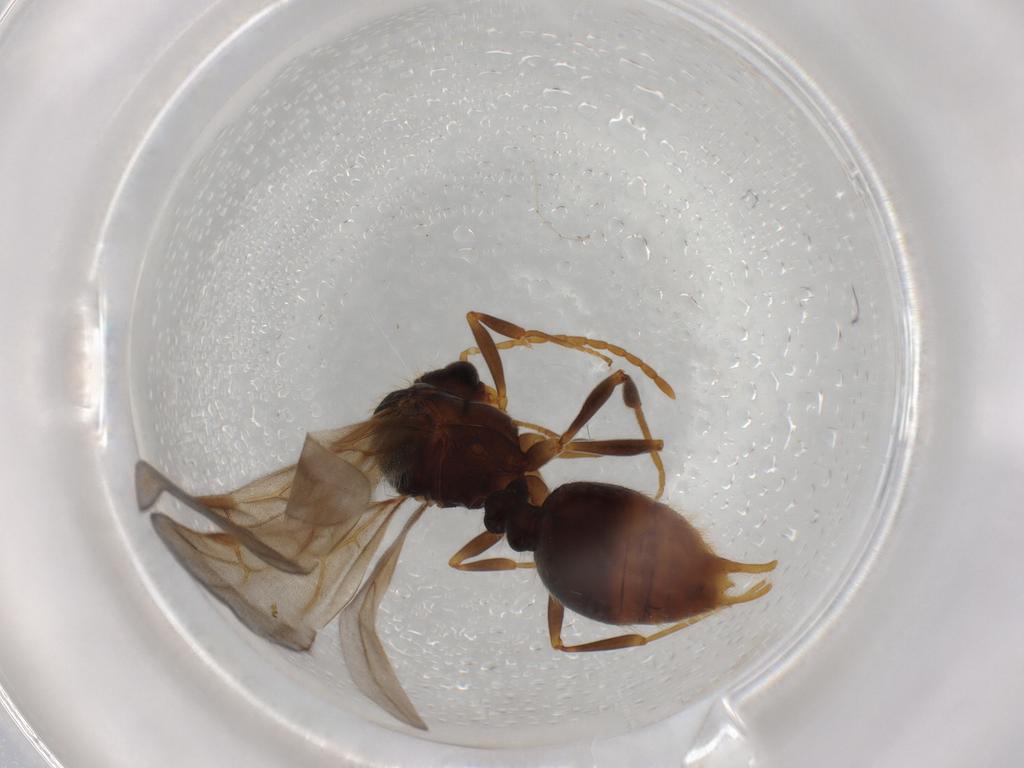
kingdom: Animalia
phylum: Arthropoda
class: Insecta
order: Hymenoptera
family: Formicidae
